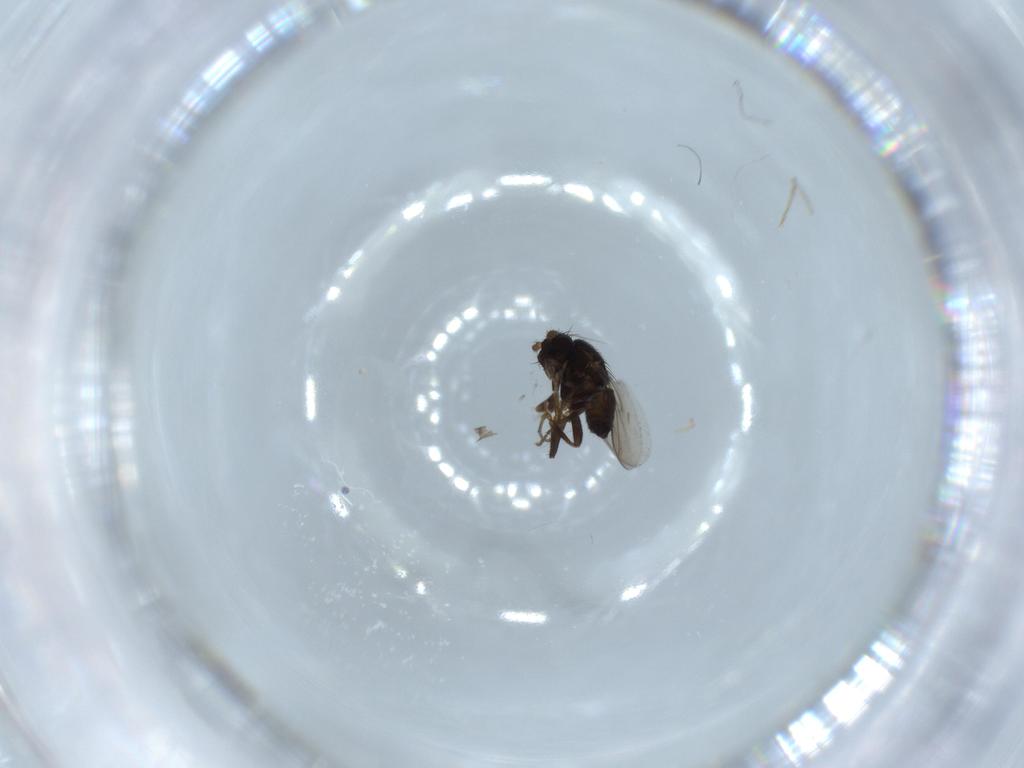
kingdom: Animalia
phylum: Arthropoda
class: Insecta
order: Diptera
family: Sphaeroceridae
